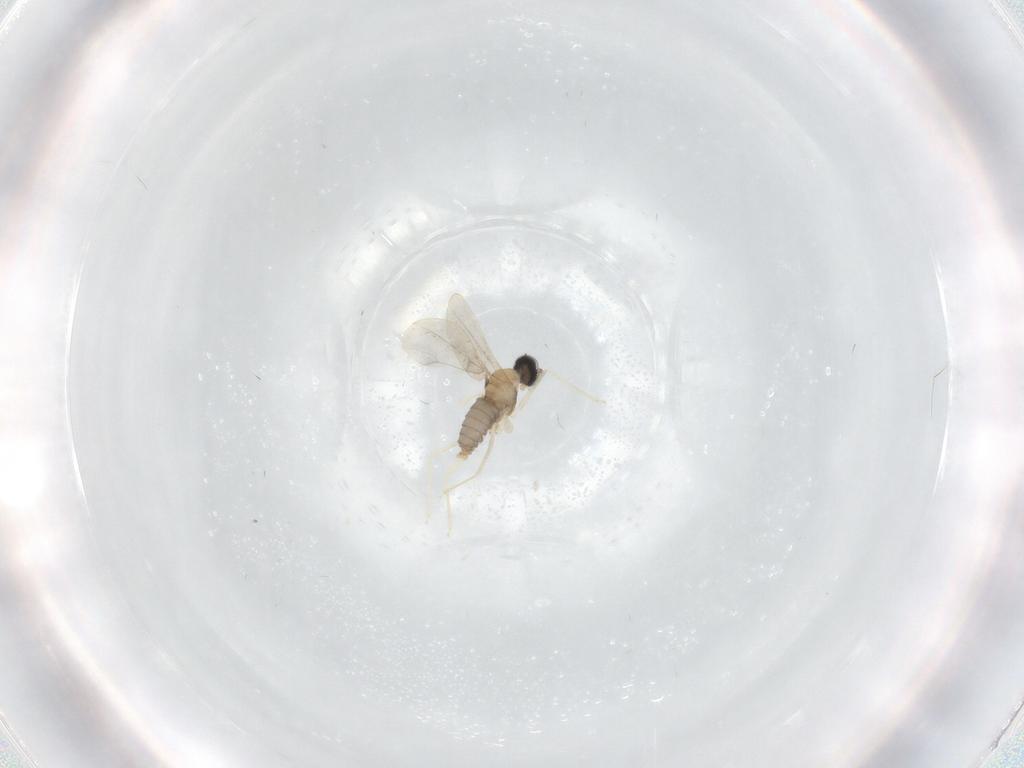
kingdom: Animalia
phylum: Arthropoda
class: Insecta
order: Diptera
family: Cecidomyiidae
